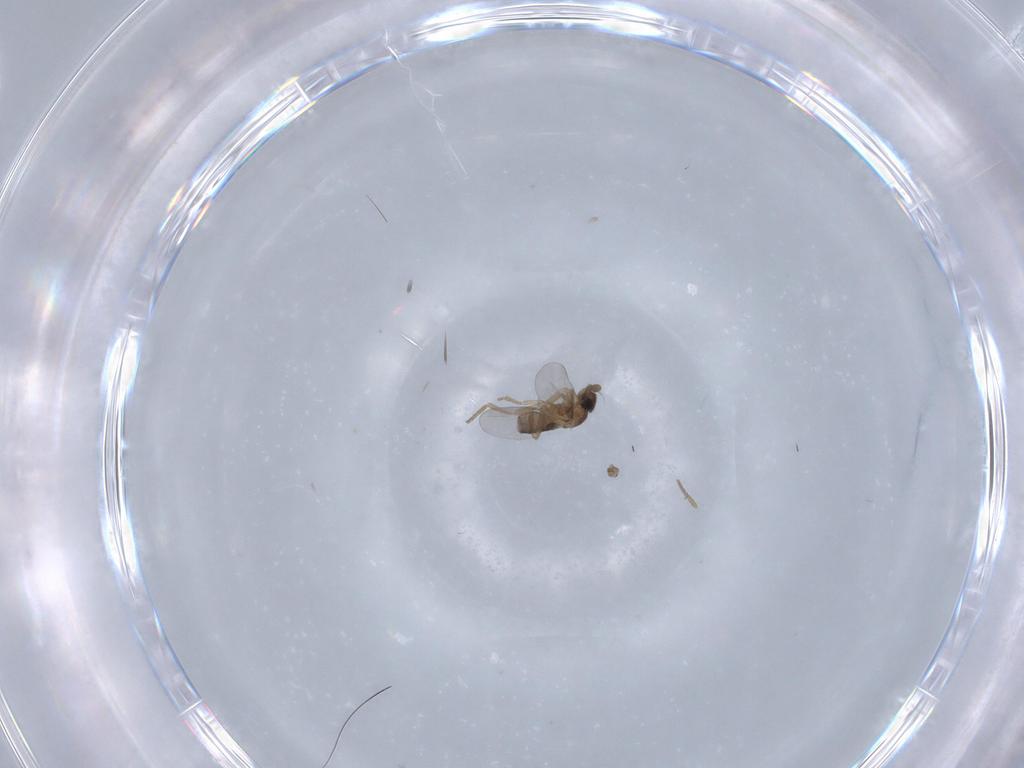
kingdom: Animalia
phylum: Arthropoda
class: Insecta
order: Diptera
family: Phoridae
